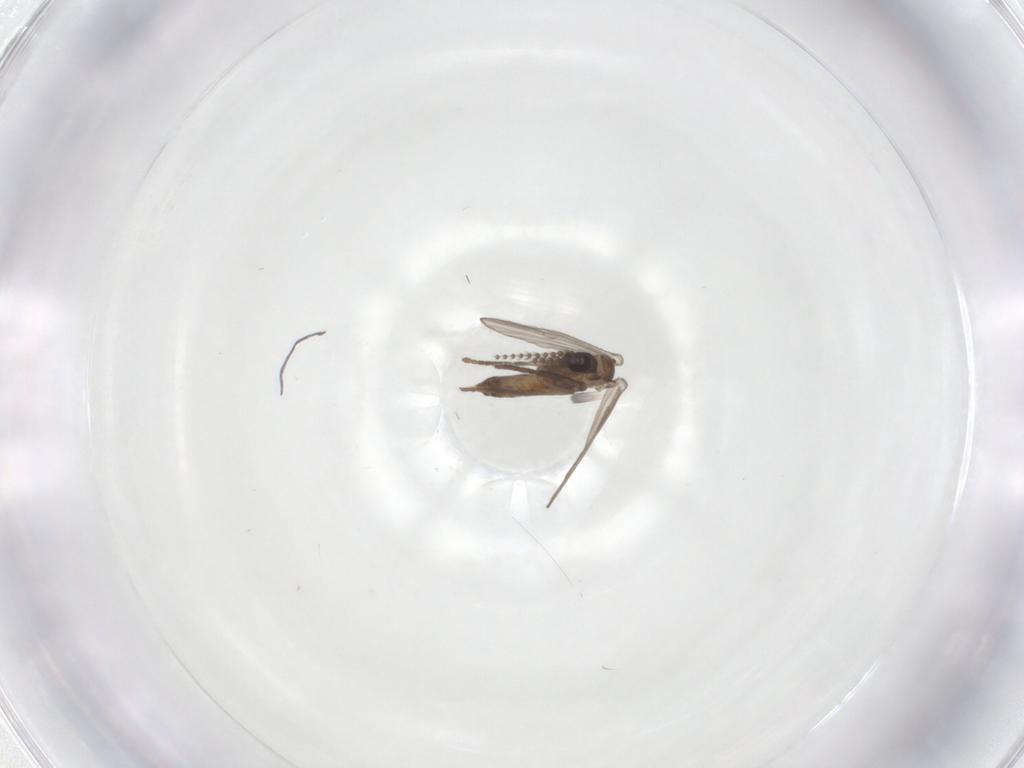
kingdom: Animalia
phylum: Arthropoda
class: Insecta
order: Diptera
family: Psychodidae
